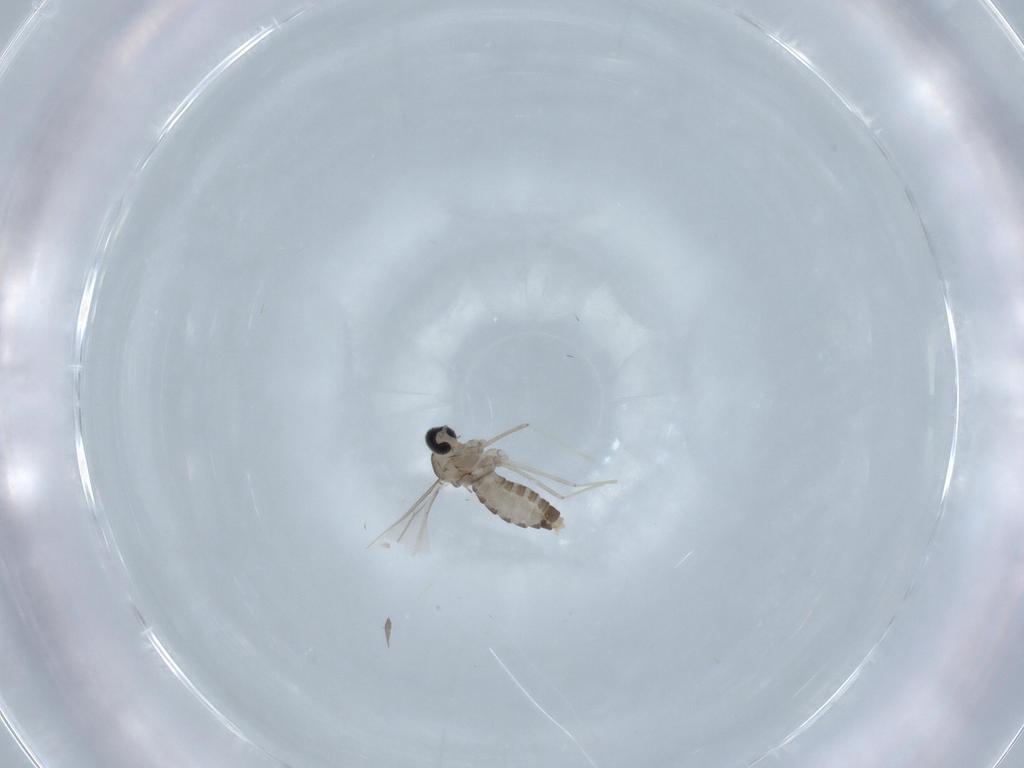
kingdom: Animalia
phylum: Arthropoda
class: Insecta
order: Diptera
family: Cecidomyiidae
